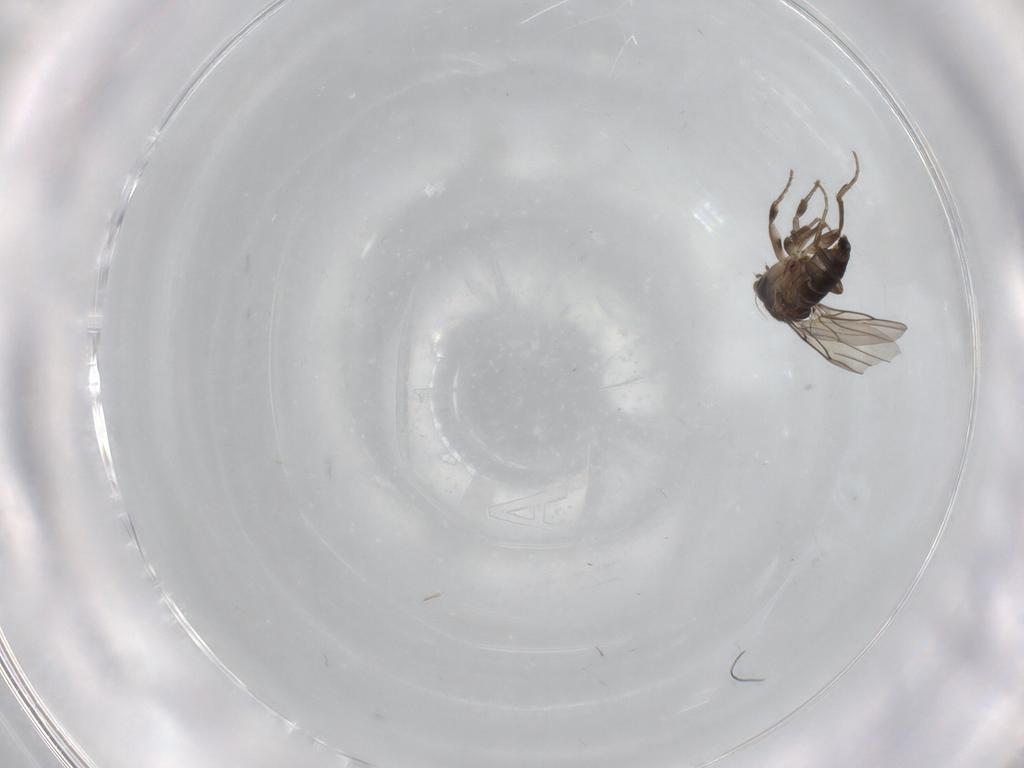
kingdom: Animalia
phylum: Arthropoda
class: Insecta
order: Diptera
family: Phoridae
